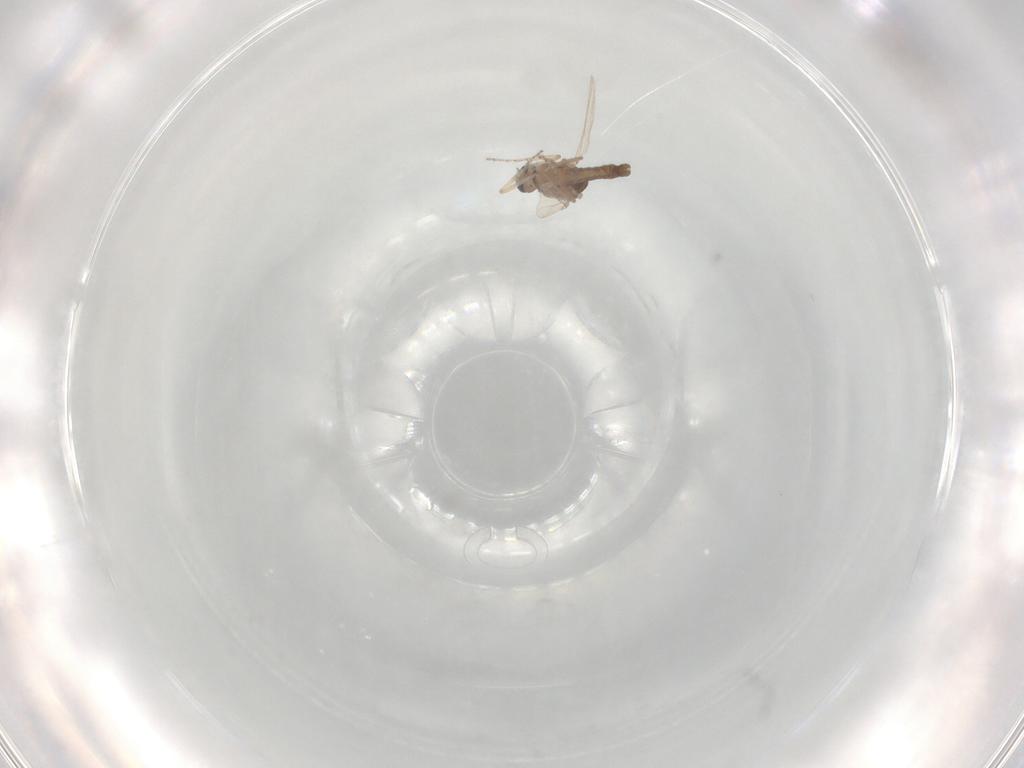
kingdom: Animalia
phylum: Arthropoda
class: Insecta
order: Diptera
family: Ceratopogonidae
